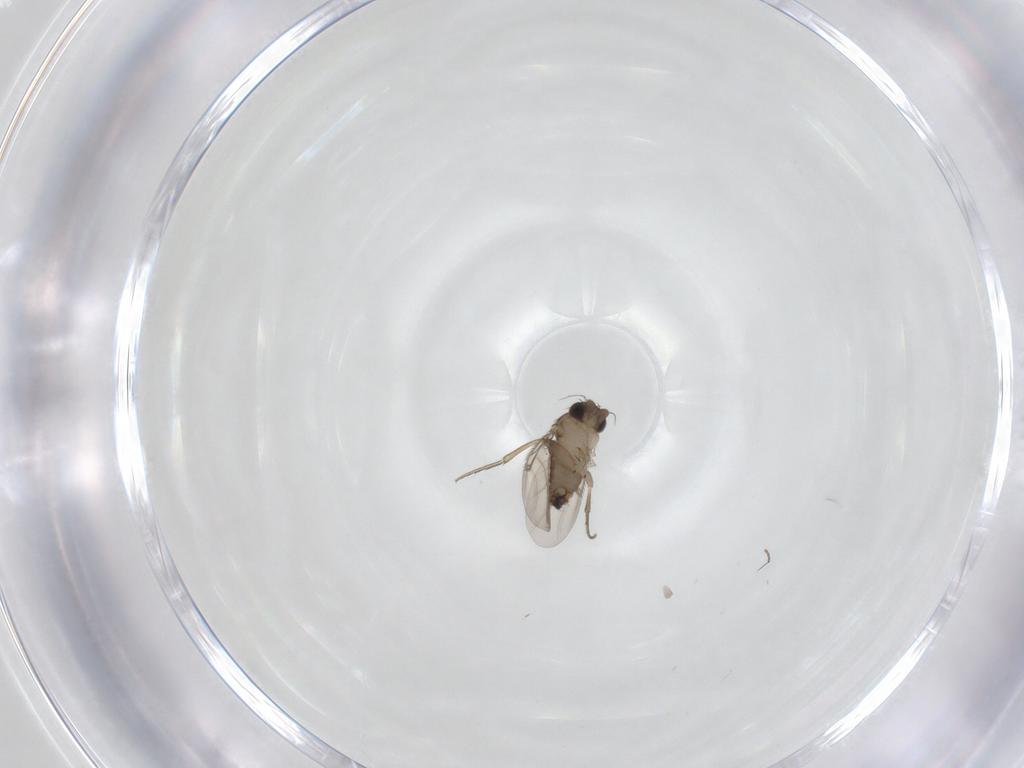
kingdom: Animalia
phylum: Arthropoda
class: Insecta
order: Diptera
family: Phoridae
